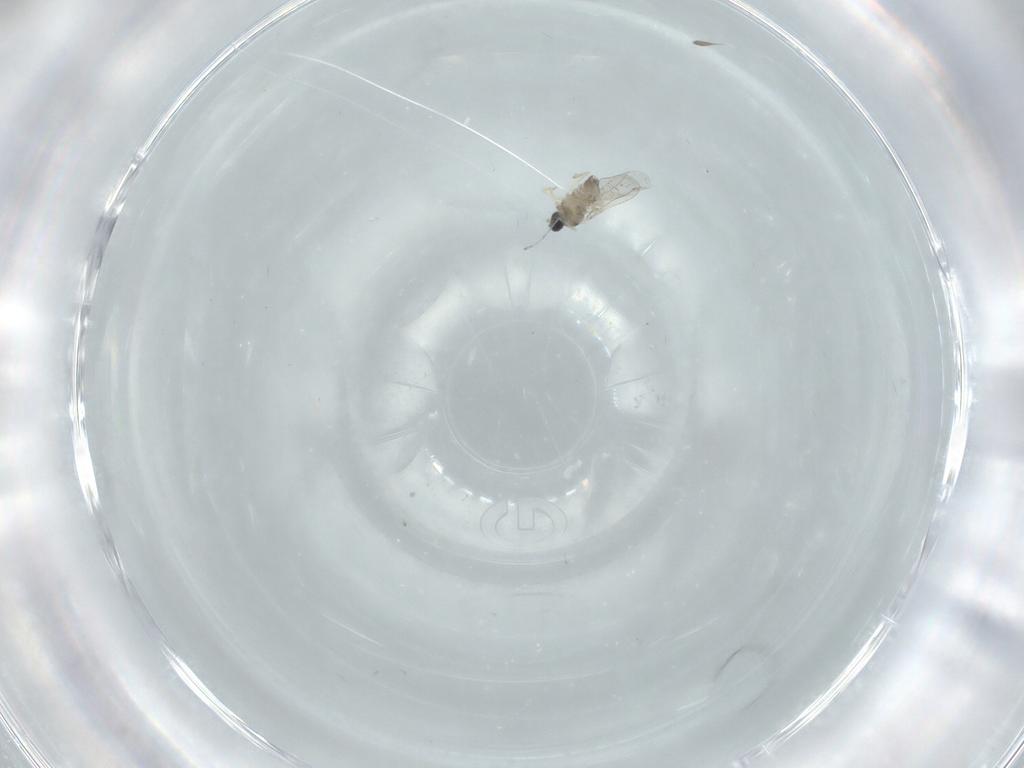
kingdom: Animalia
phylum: Arthropoda
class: Insecta
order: Diptera
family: Cecidomyiidae
